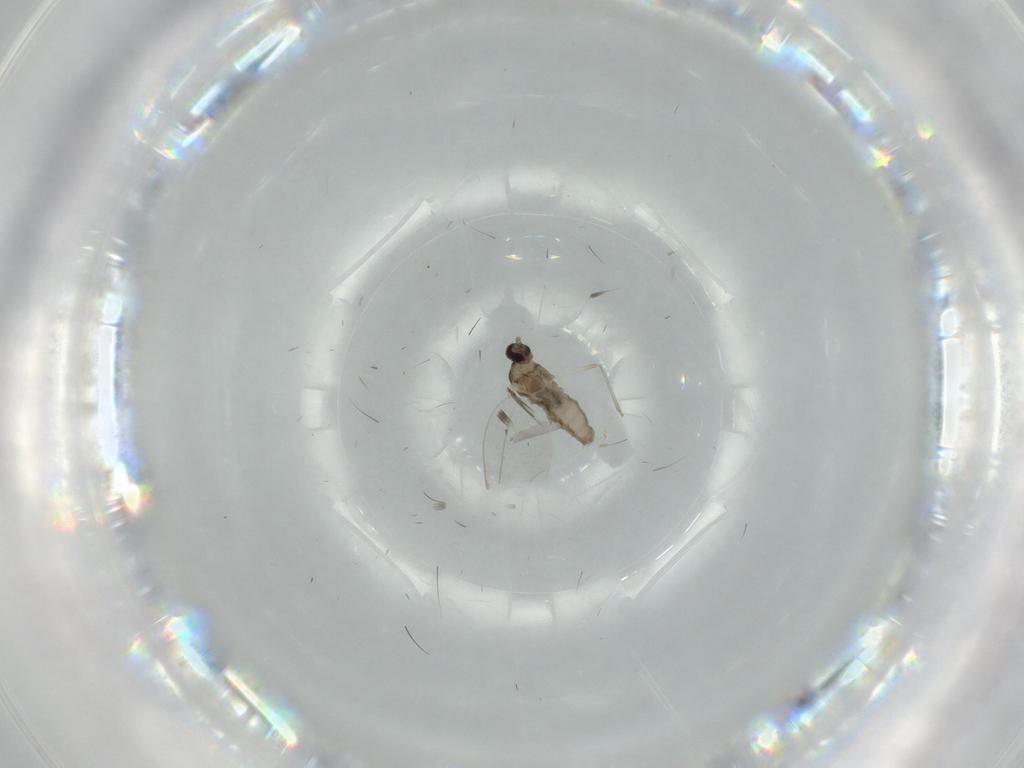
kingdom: Animalia
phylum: Arthropoda
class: Insecta
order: Diptera
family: Cecidomyiidae
